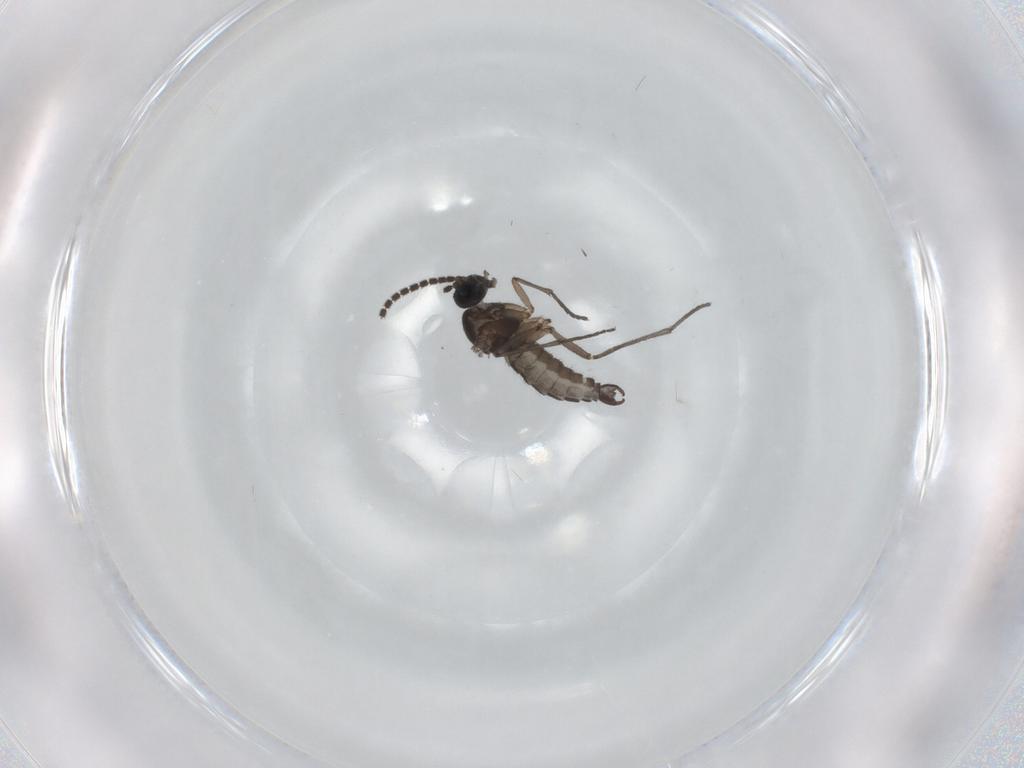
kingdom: Animalia
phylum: Arthropoda
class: Insecta
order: Diptera
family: Sciaridae
